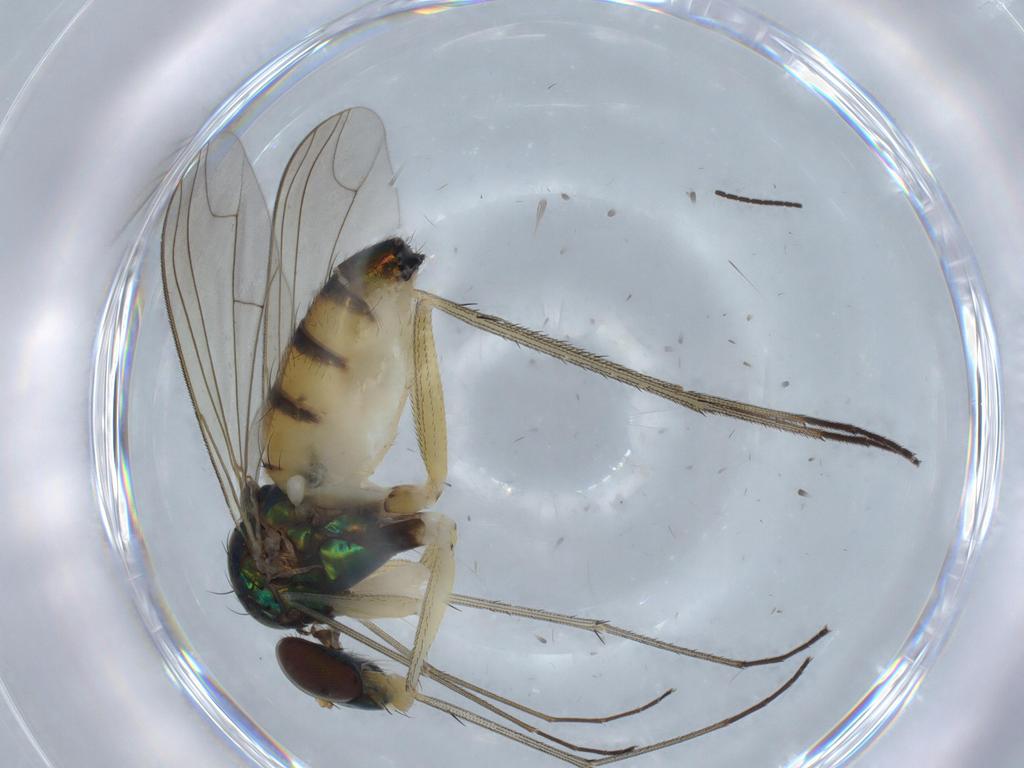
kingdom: Animalia
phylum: Arthropoda
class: Insecta
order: Diptera
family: Dolichopodidae
